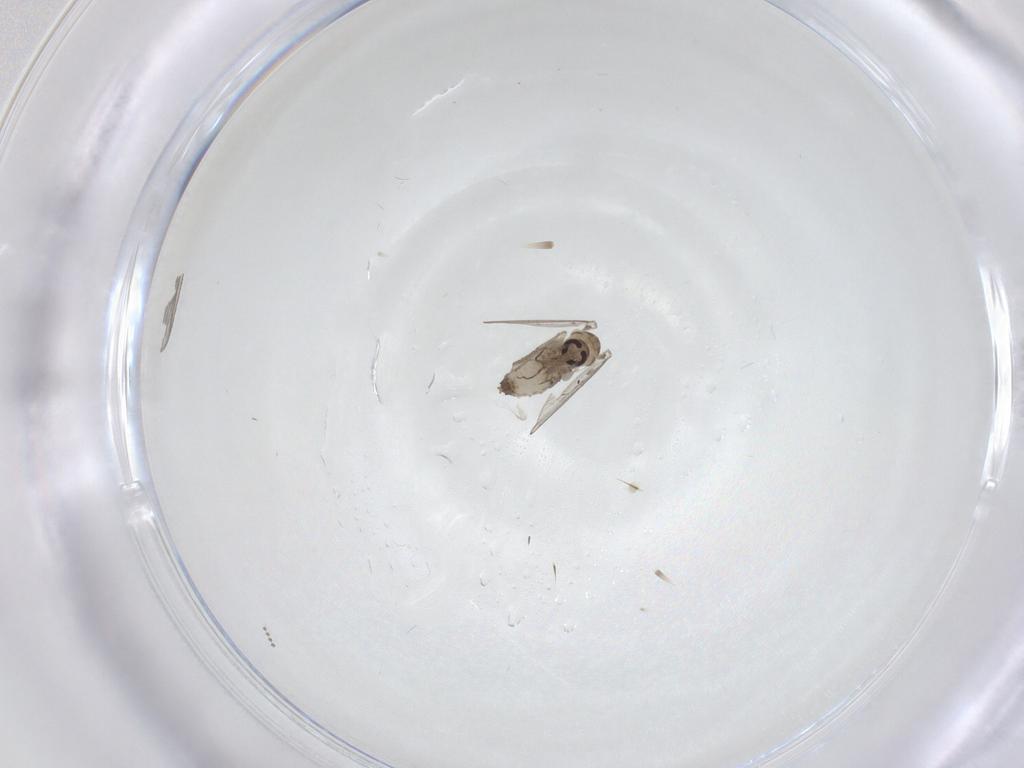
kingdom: Animalia
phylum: Arthropoda
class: Insecta
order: Diptera
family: Psychodidae
